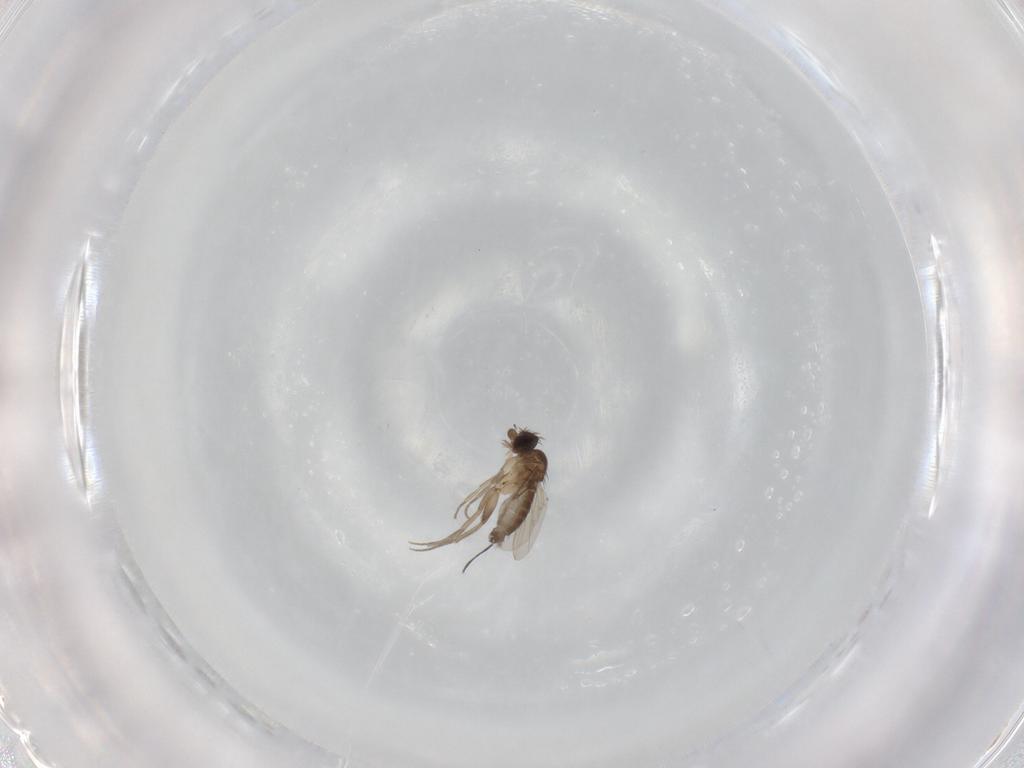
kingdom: Animalia
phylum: Arthropoda
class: Insecta
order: Diptera
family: Phoridae
